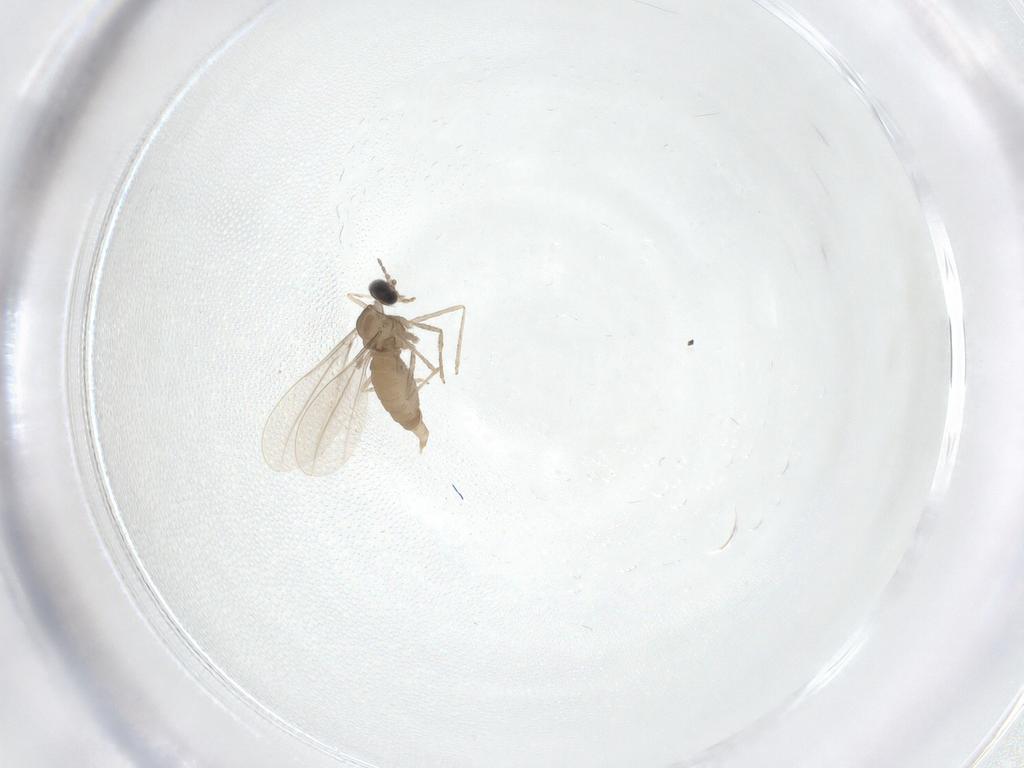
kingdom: Animalia
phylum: Arthropoda
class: Insecta
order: Diptera
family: Cecidomyiidae
